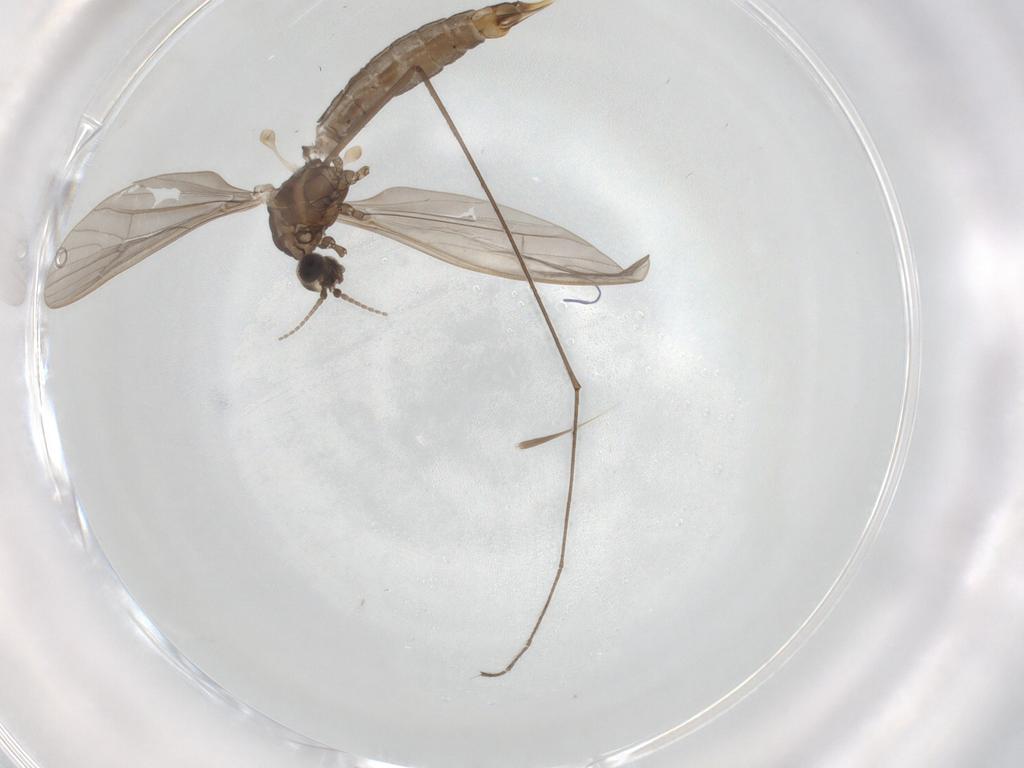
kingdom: Animalia
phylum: Arthropoda
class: Insecta
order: Diptera
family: Limoniidae
